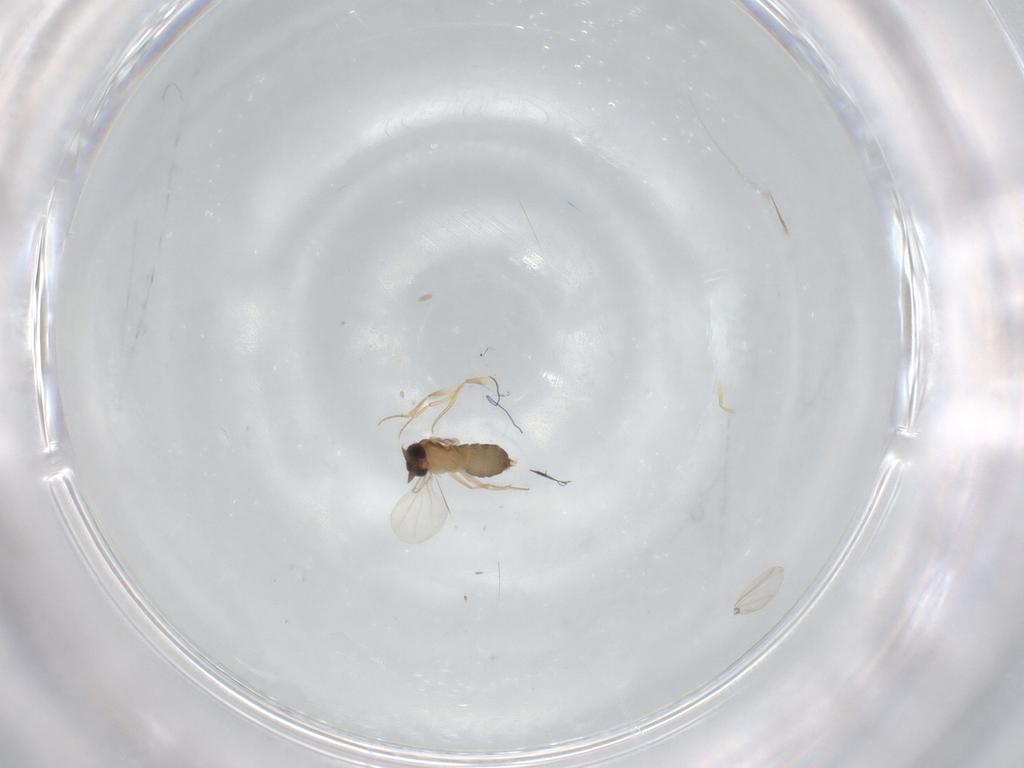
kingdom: Animalia
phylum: Arthropoda
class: Insecta
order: Diptera
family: Phoridae
